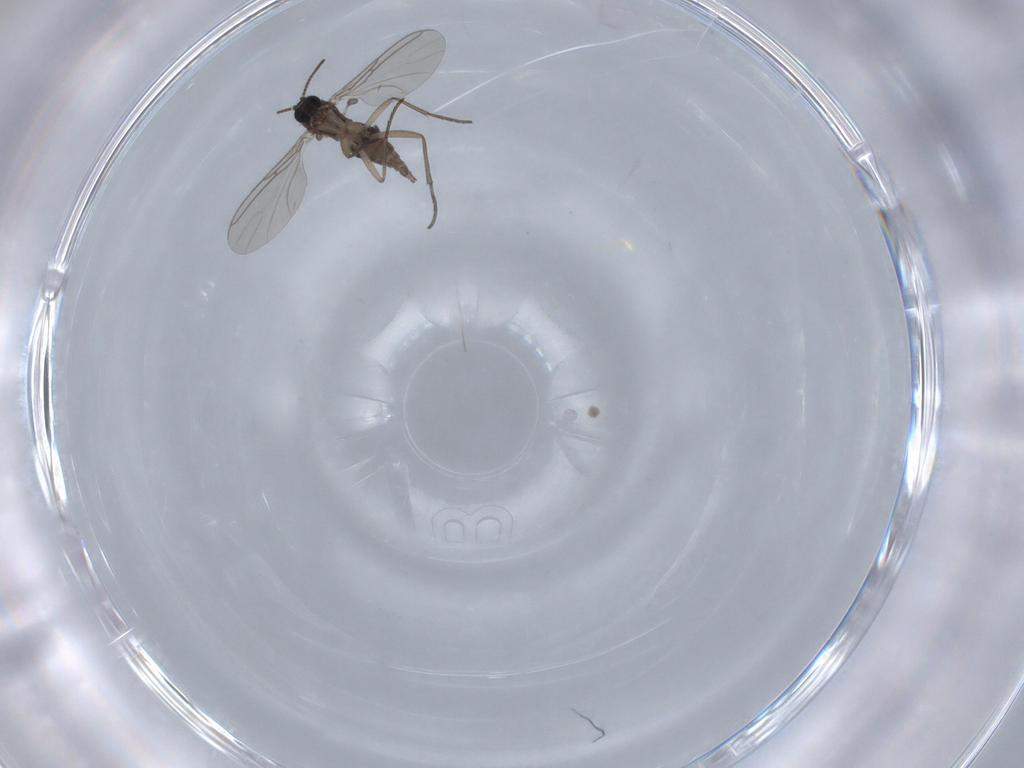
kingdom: Animalia
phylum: Arthropoda
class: Insecta
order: Diptera
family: Sciaridae
